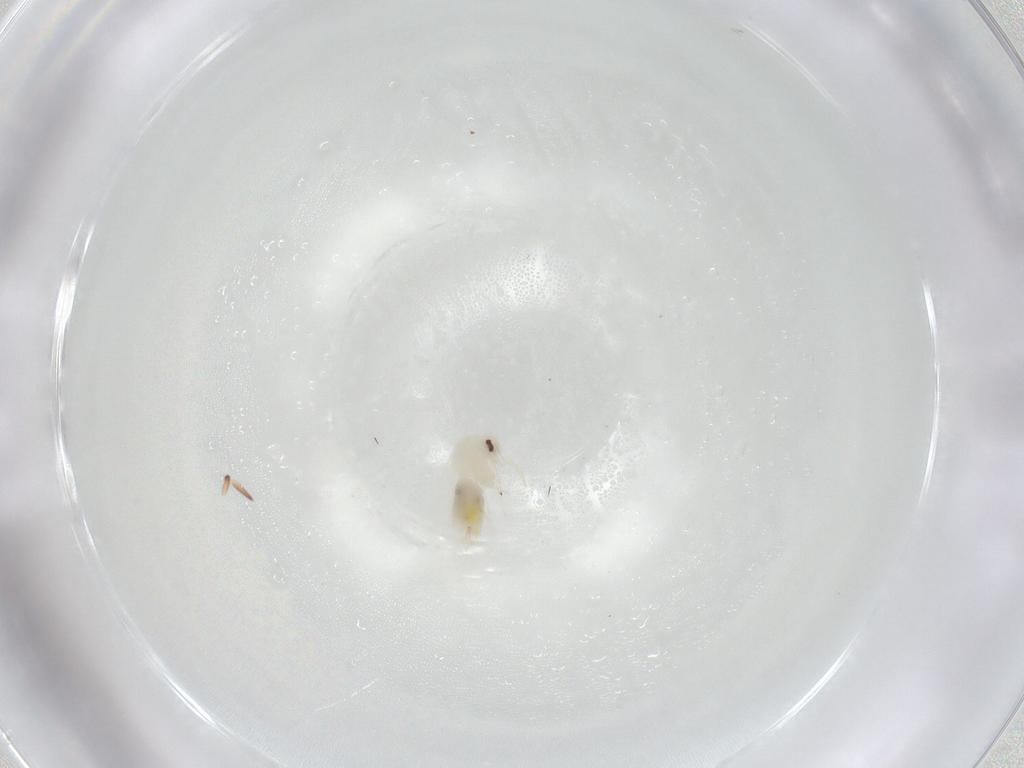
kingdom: Animalia
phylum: Arthropoda
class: Insecta
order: Hemiptera
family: Aleyrodidae
